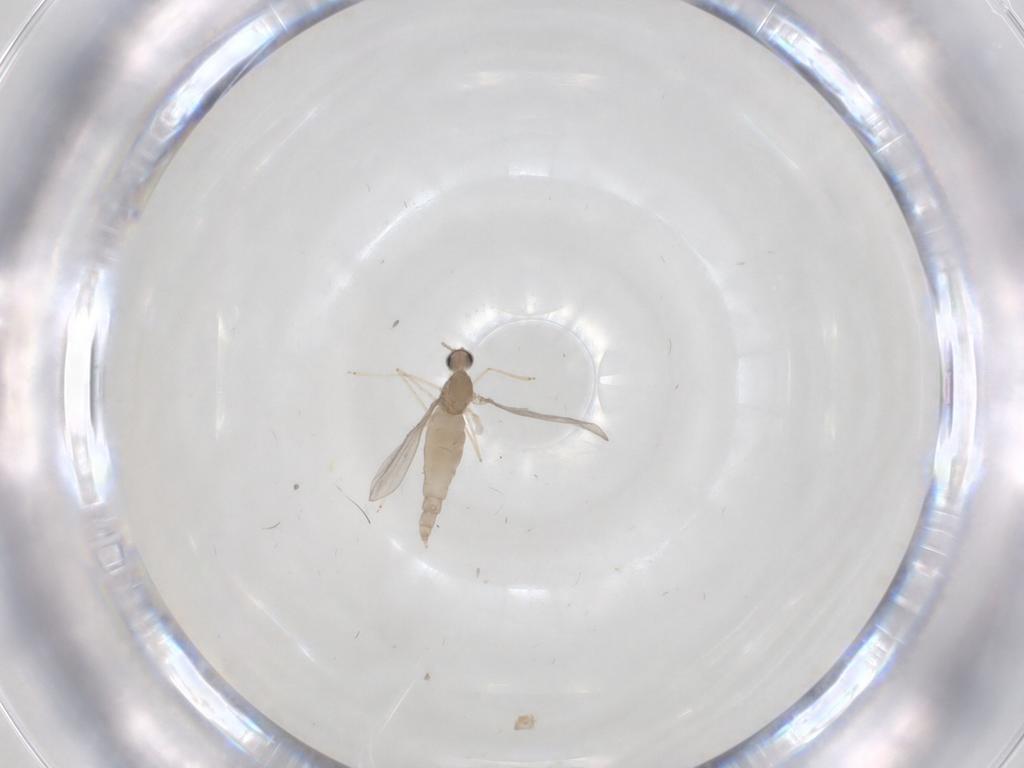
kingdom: Animalia
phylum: Arthropoda
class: Insecta
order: Diptera
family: Cecidomyiidae
